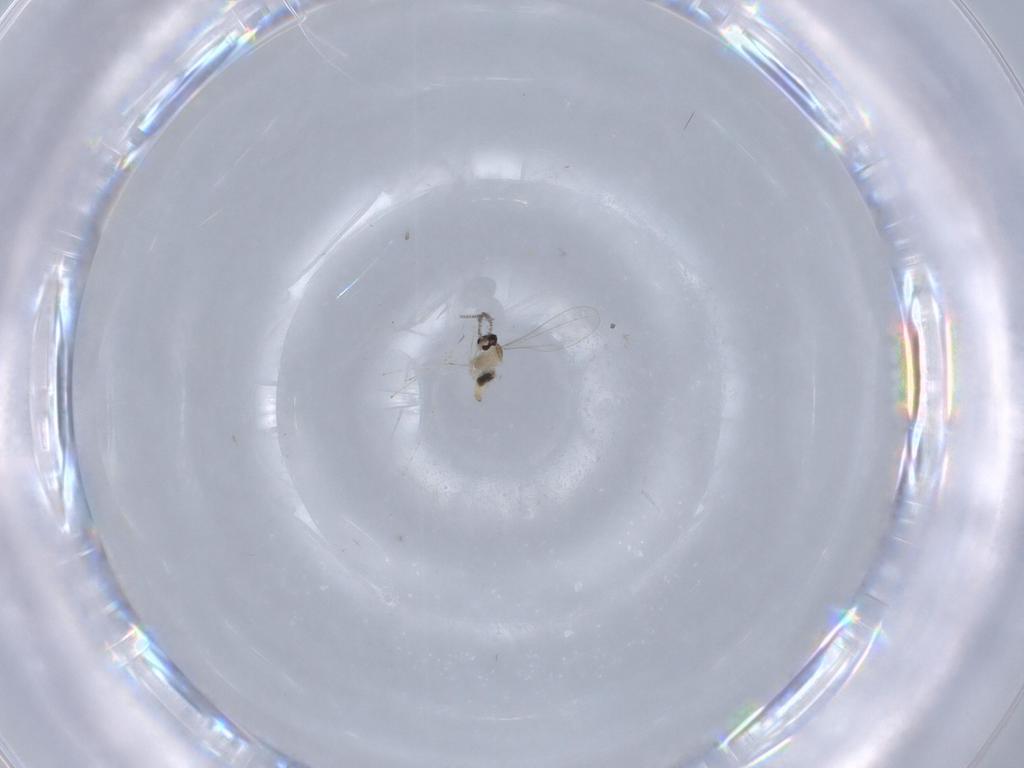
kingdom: Animalia
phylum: Arthropoda
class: Insecta
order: Diptera
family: Cecidomyiidae
